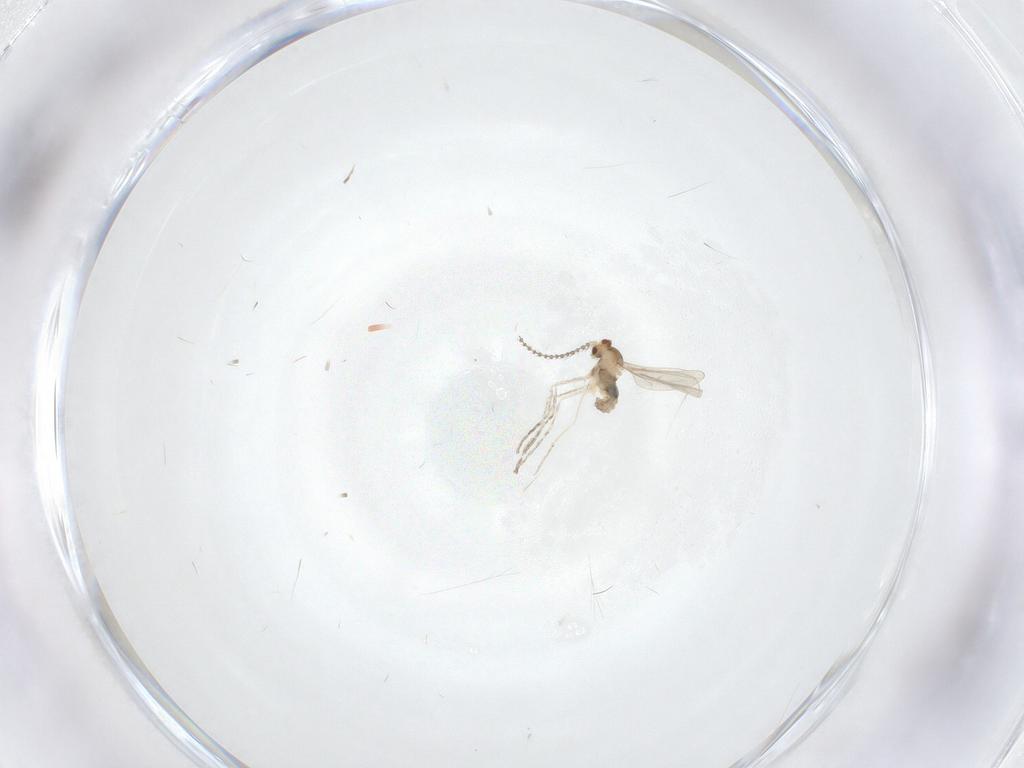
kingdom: Animalia
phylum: Arthropoda
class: Insecta
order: Diptera
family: Cecidomyiidae
